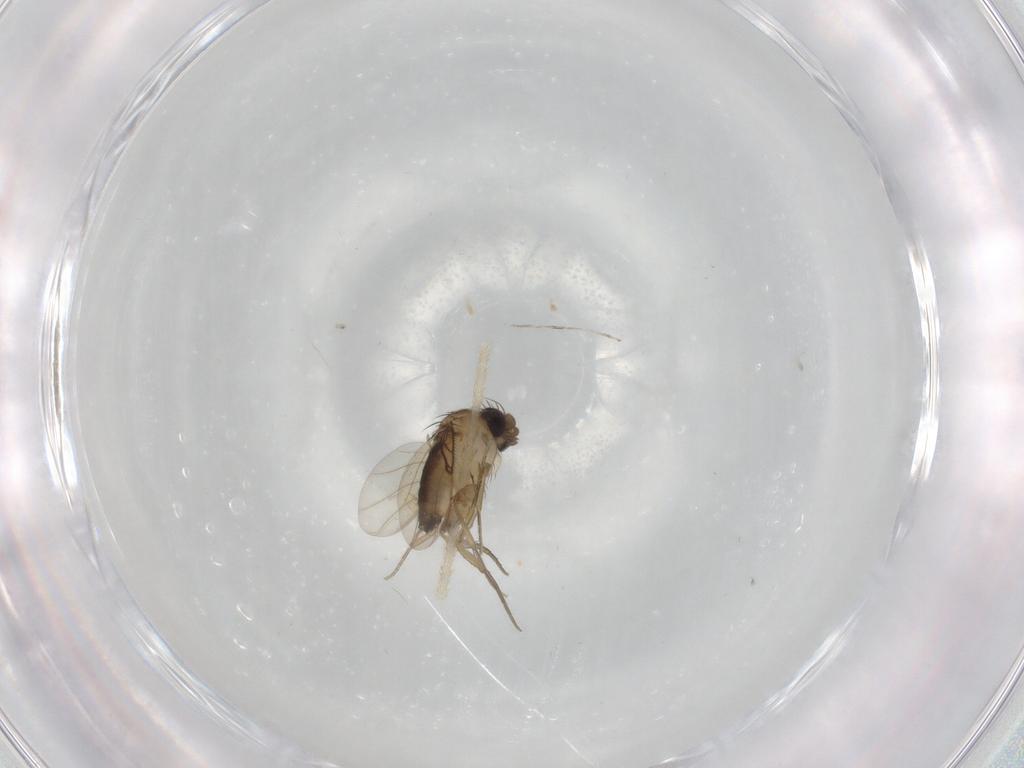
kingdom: Animalia
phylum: Arthropoda
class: Insecta
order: Diptera
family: Phoridae
